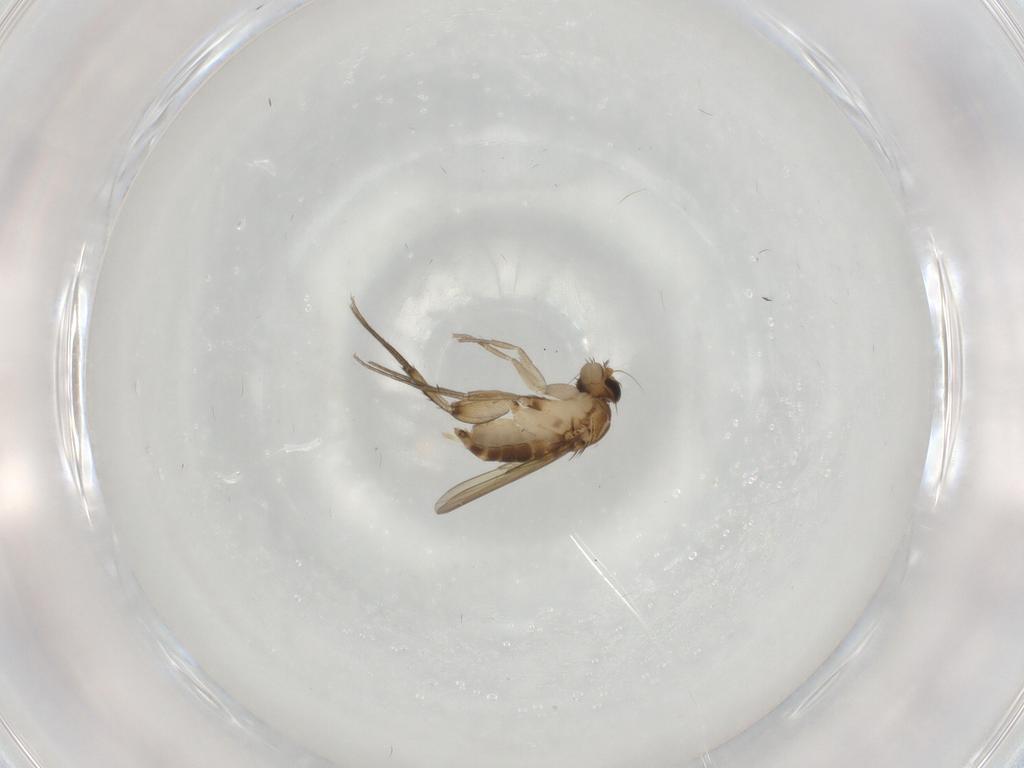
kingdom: Animalia
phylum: Arthropoda
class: Insecta
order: Diptera
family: Phoridae
